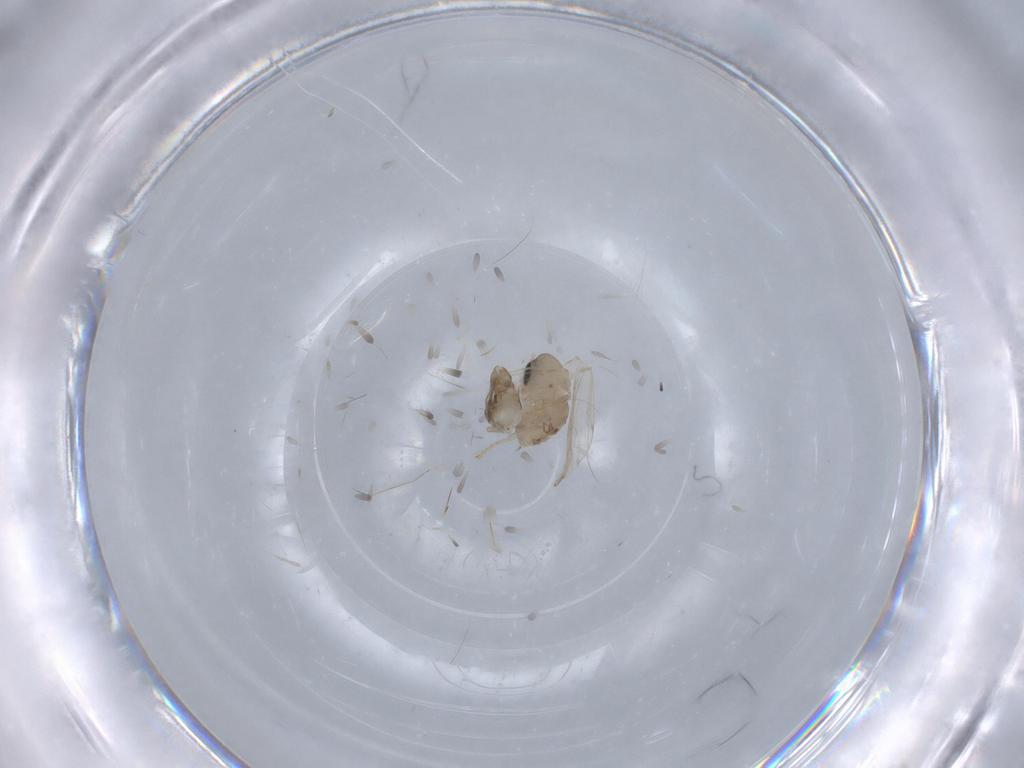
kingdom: Animalia
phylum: Arthropoda
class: Insecta
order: Diptera
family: Psychodidae
